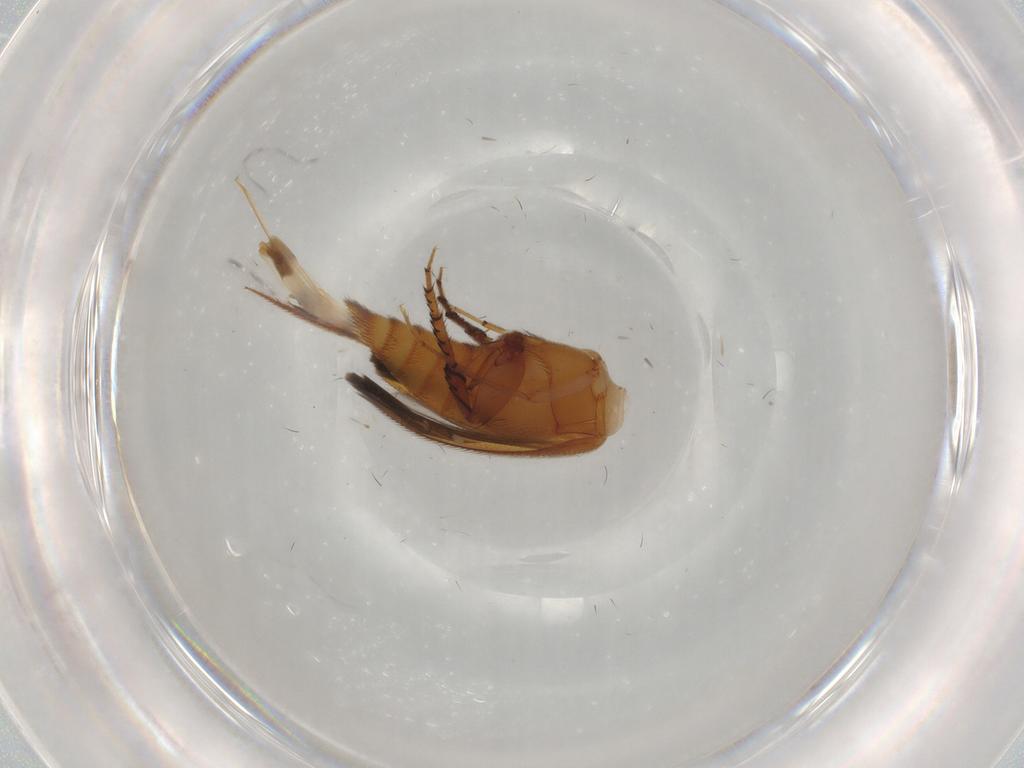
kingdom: Animalia
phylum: Arthropoda
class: Insecta
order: Coleoptera
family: Mordellidae
